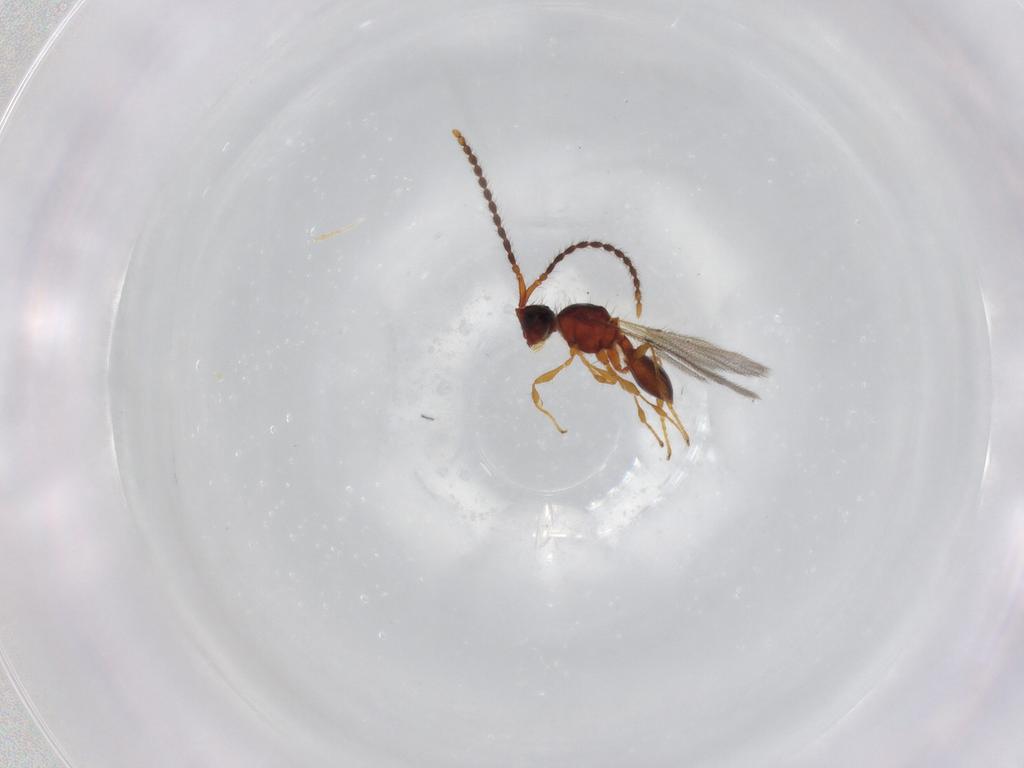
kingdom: Animalia
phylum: Arthropoda
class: Insecta
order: Hymenoptera
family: Diapriidae
